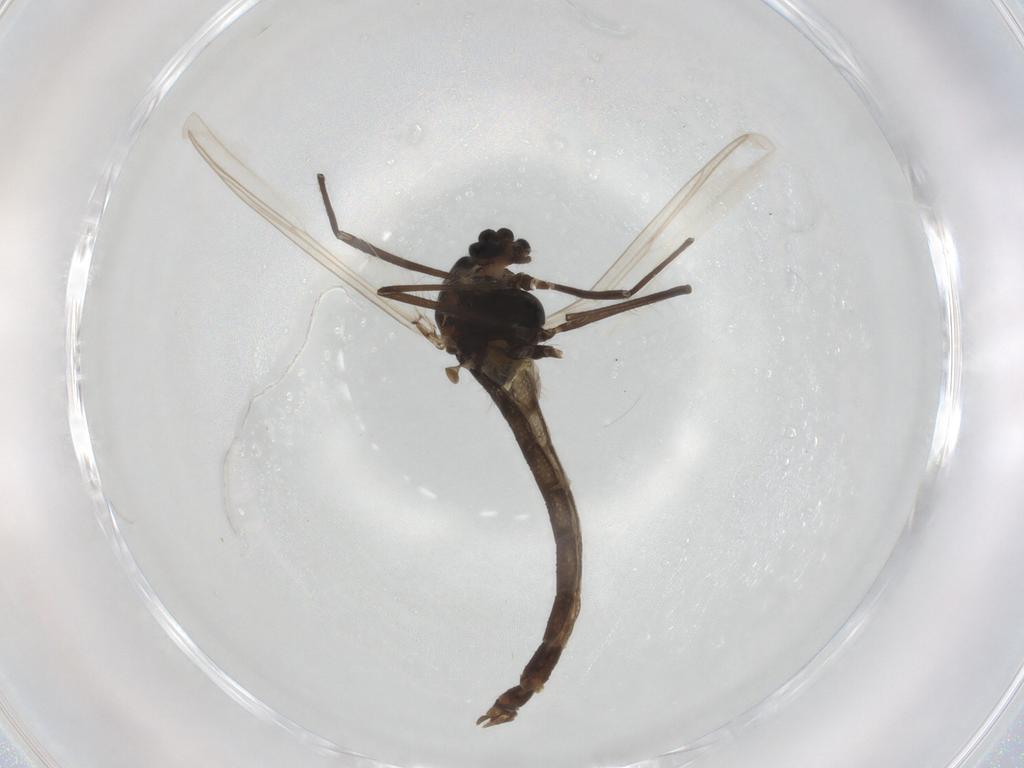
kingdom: Animalia
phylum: Arthropoda
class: Insecta
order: Diptera
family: Chironomidae
